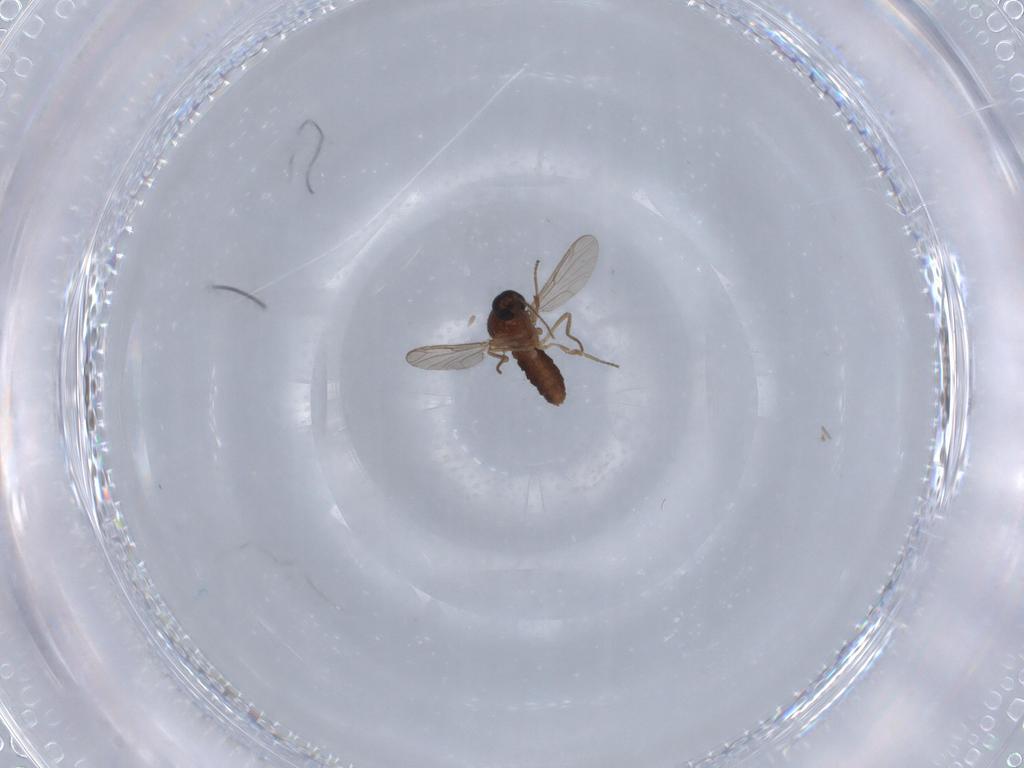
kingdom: Animalia
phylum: Arthropoda
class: Insecta
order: Diptera
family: Ceratopogonidae
